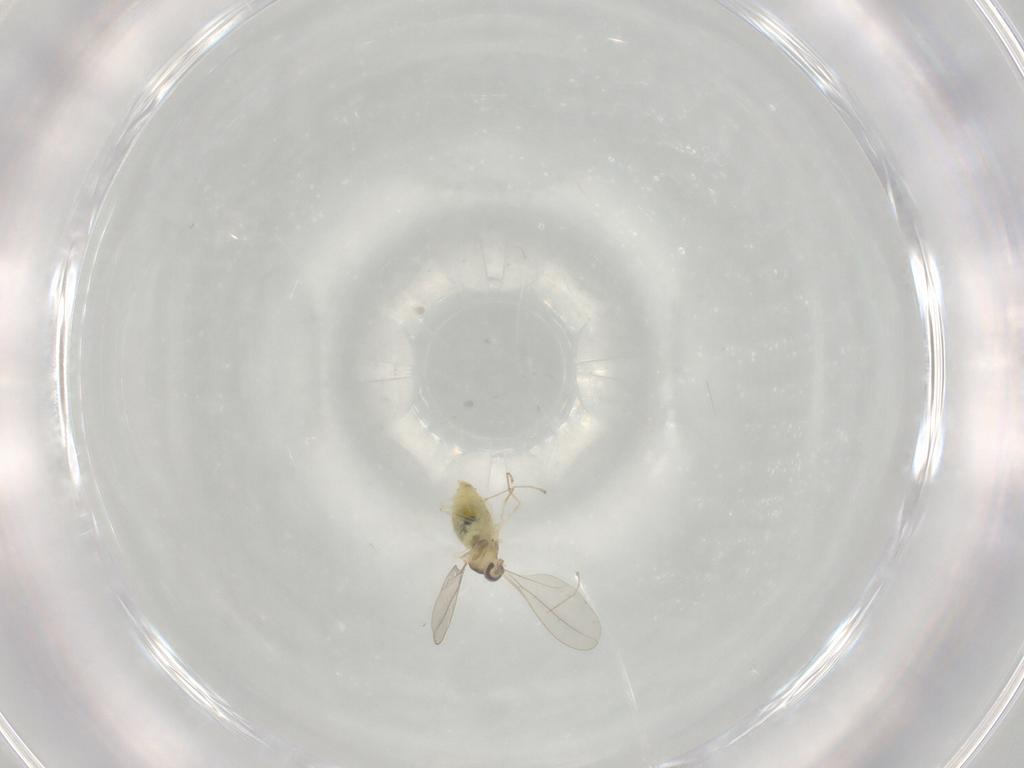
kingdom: Animalia
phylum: Arthropoda
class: Insecta
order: Diptera
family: Cecidomyiidae
